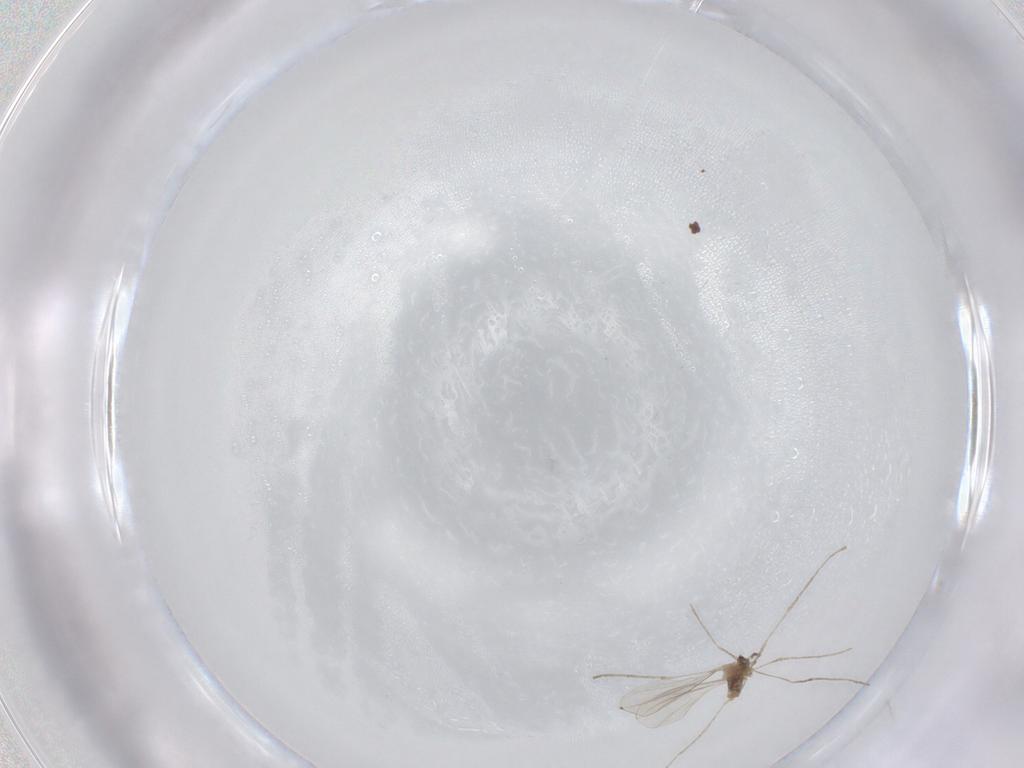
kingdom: Animalia
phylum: Arthropoda
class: Insecta
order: Diptera
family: Cecidomyiidae
